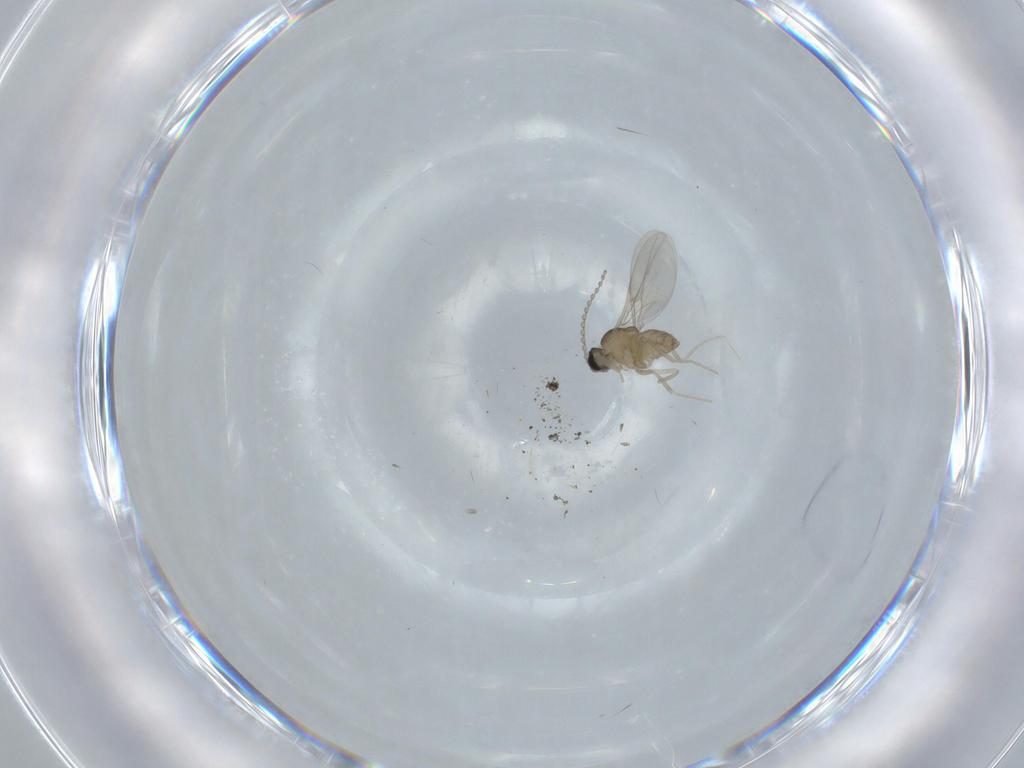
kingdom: Animalia
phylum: Arthropoda
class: Insecta
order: Diptera
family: Cecidomyiidae
